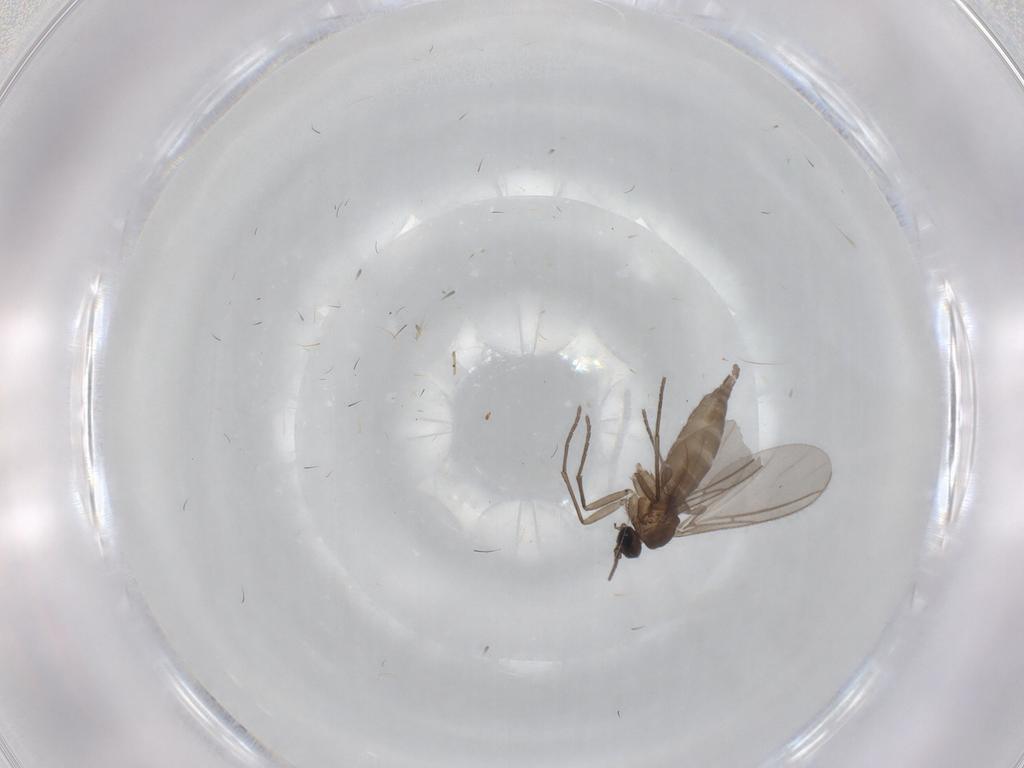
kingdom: Animalia
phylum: Arthropoda
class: Insecta
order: Diptera
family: Sciaridae
